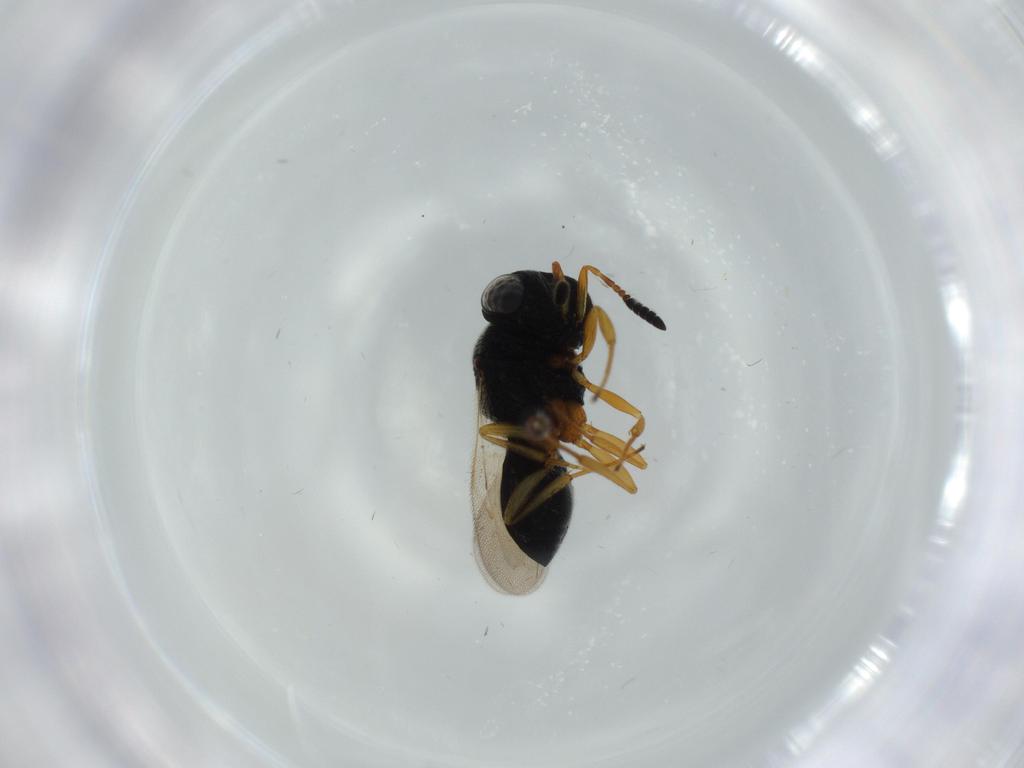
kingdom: Animalia
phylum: Arthropoda
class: Insecta
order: Hymenoptera
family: Scelionidae
